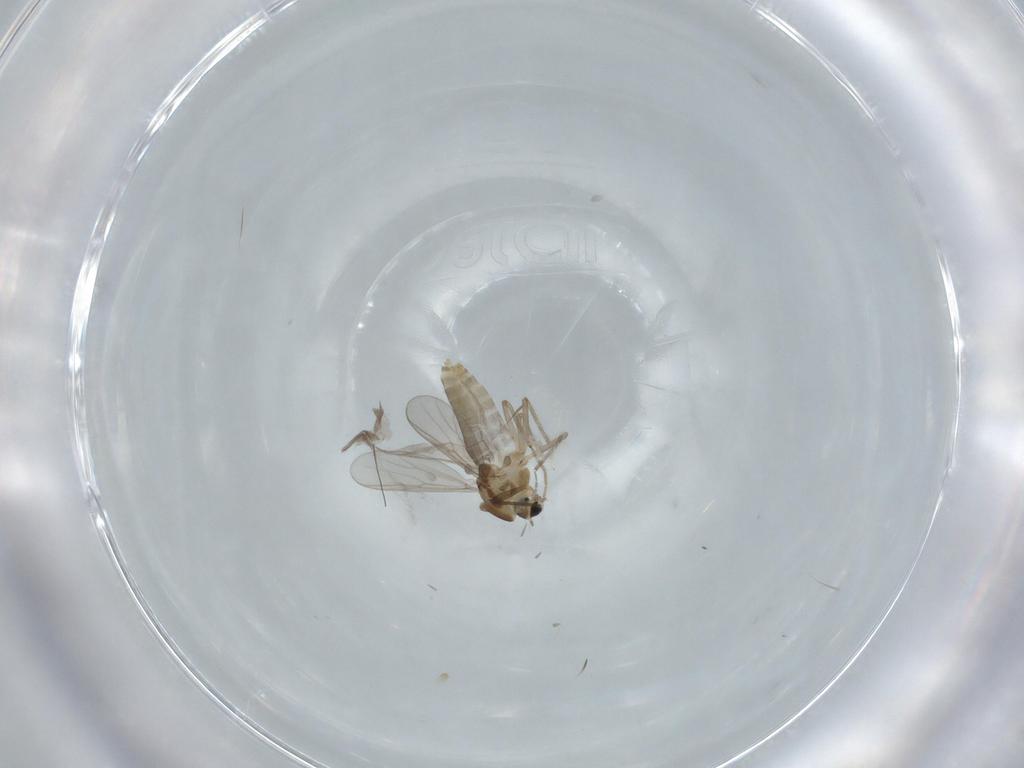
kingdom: Animalia
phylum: Arthropoda
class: Insecta
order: Diptera
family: Chironomidae
